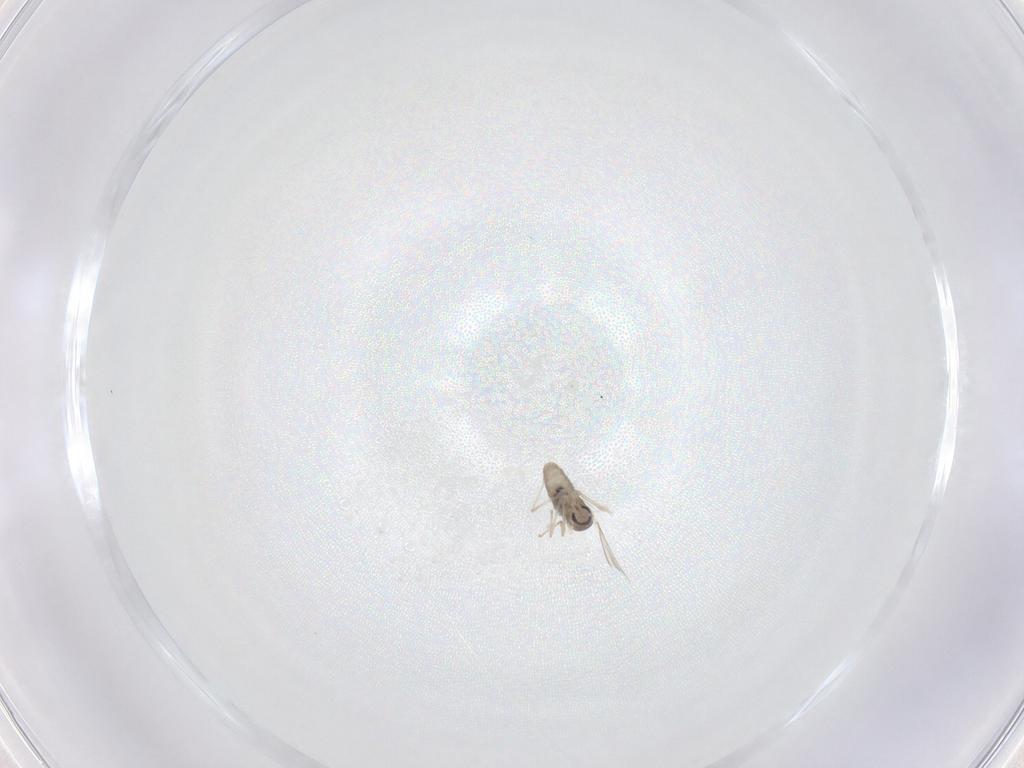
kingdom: Animalia
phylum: Arthropoda
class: Insecta
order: Diptera
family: Cecidomyiidae
